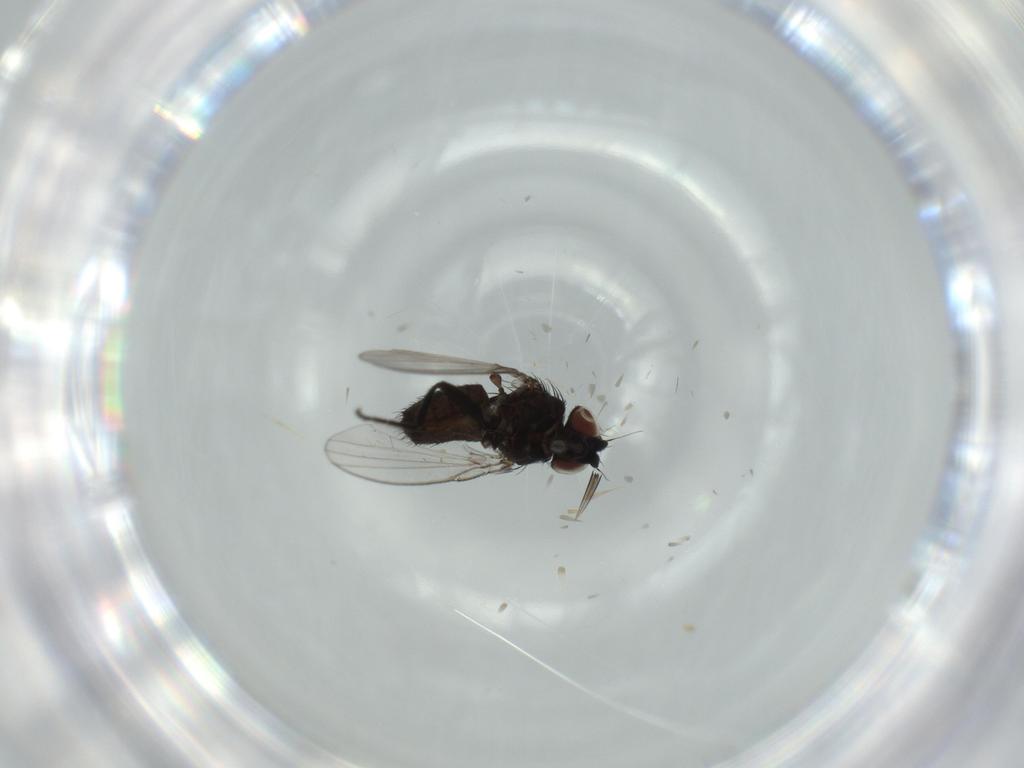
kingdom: Animalia
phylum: Arthropoda
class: Insecta
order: Diptera
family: Milichiidae
